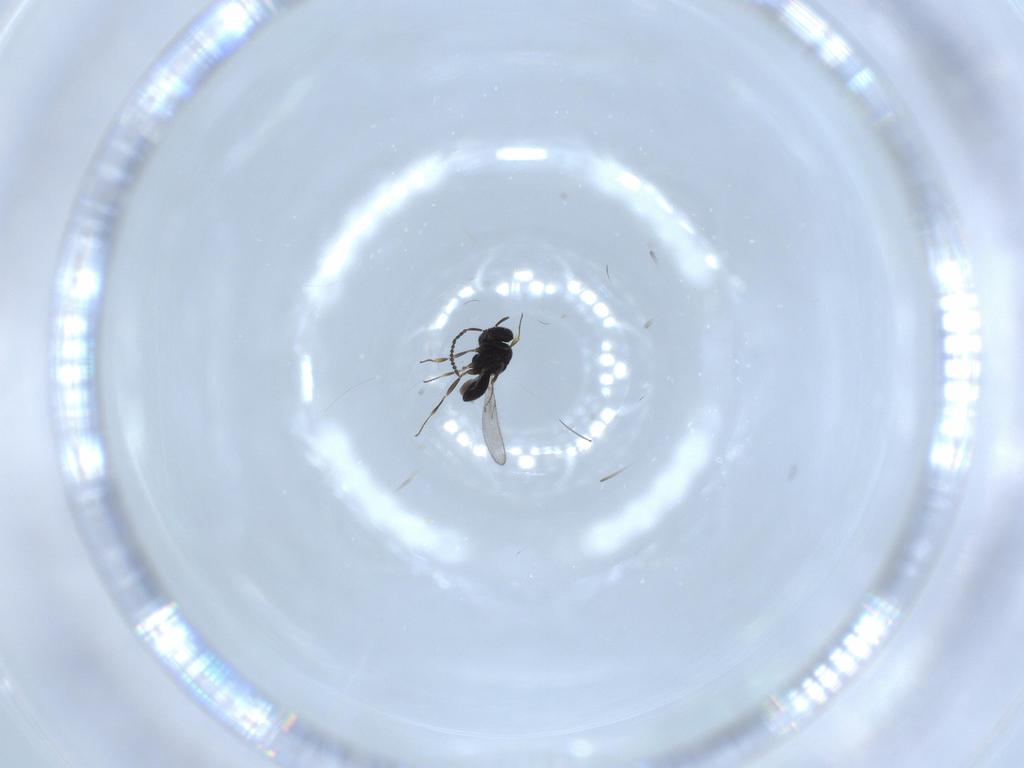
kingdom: Animalia
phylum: Arthropoda
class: Insecta
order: Hymenoptera
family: Scelionidae
